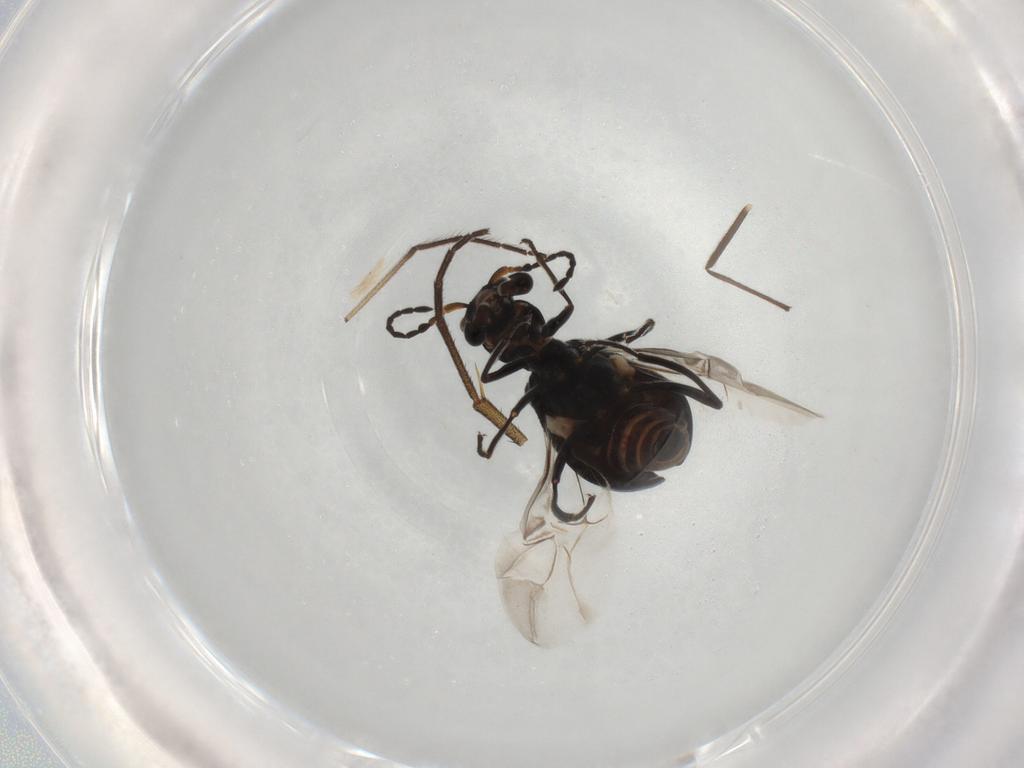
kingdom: Animalia
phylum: Arthropoda
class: Insecta
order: Coleoptera
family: Melyridae
